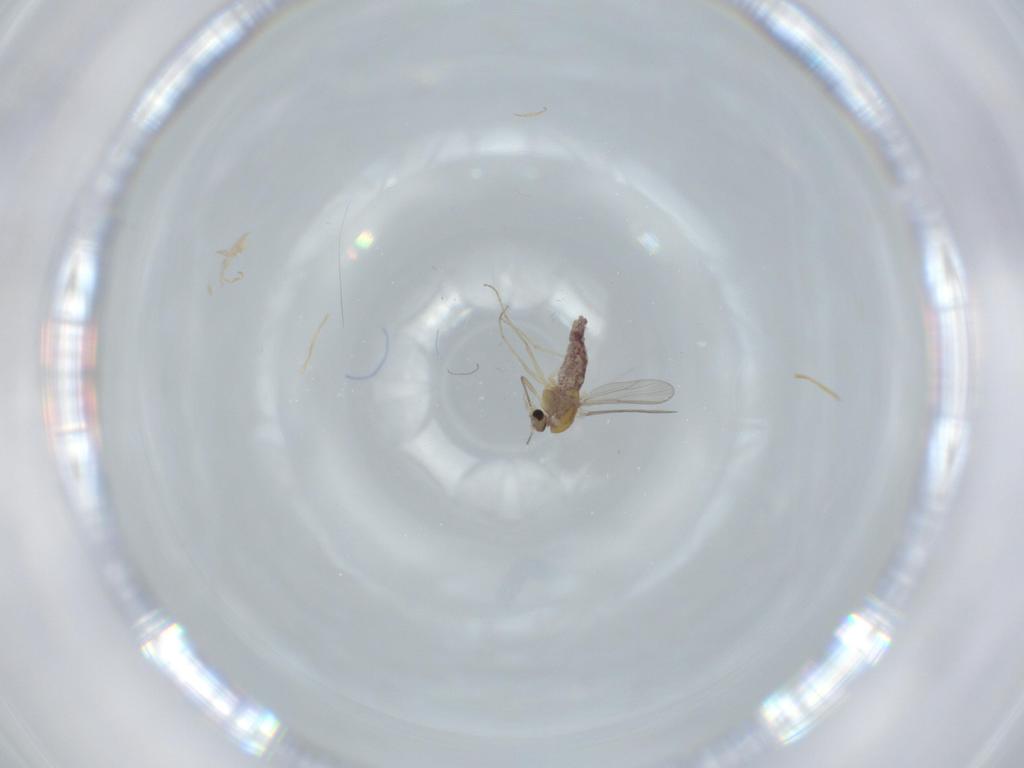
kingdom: Animalia
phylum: Arthropoda
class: Insecta
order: Diptera
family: Chironomidae
